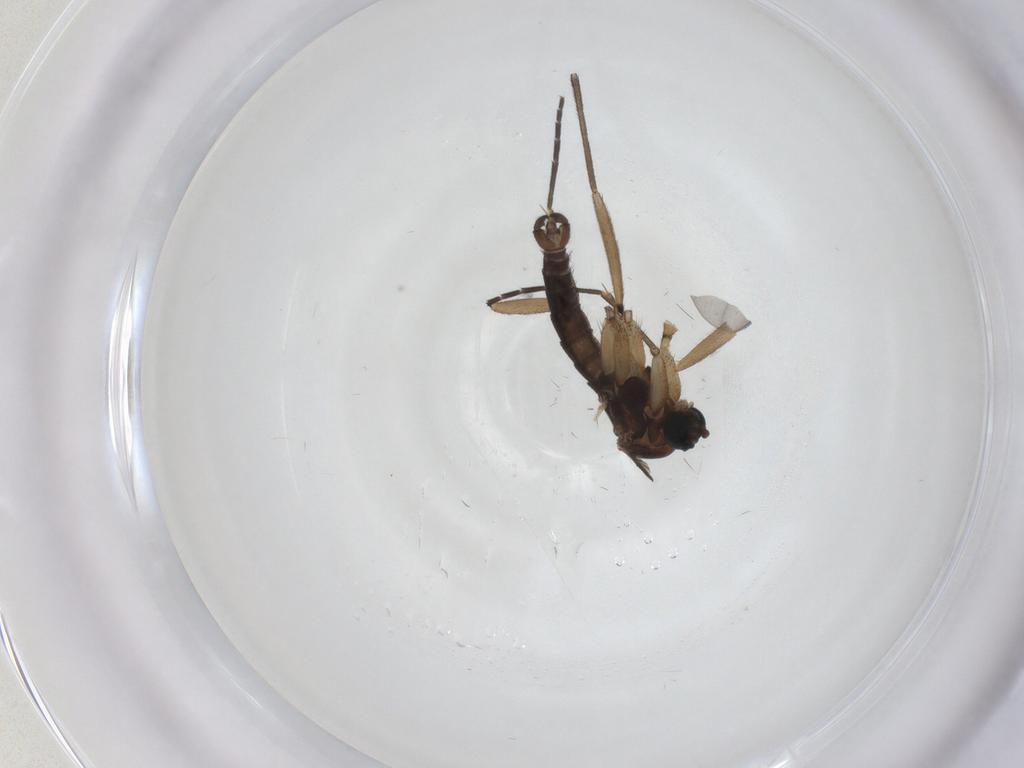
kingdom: Animalia
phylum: Arthropoda
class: Insecta
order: Diptera
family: Sciaridae
